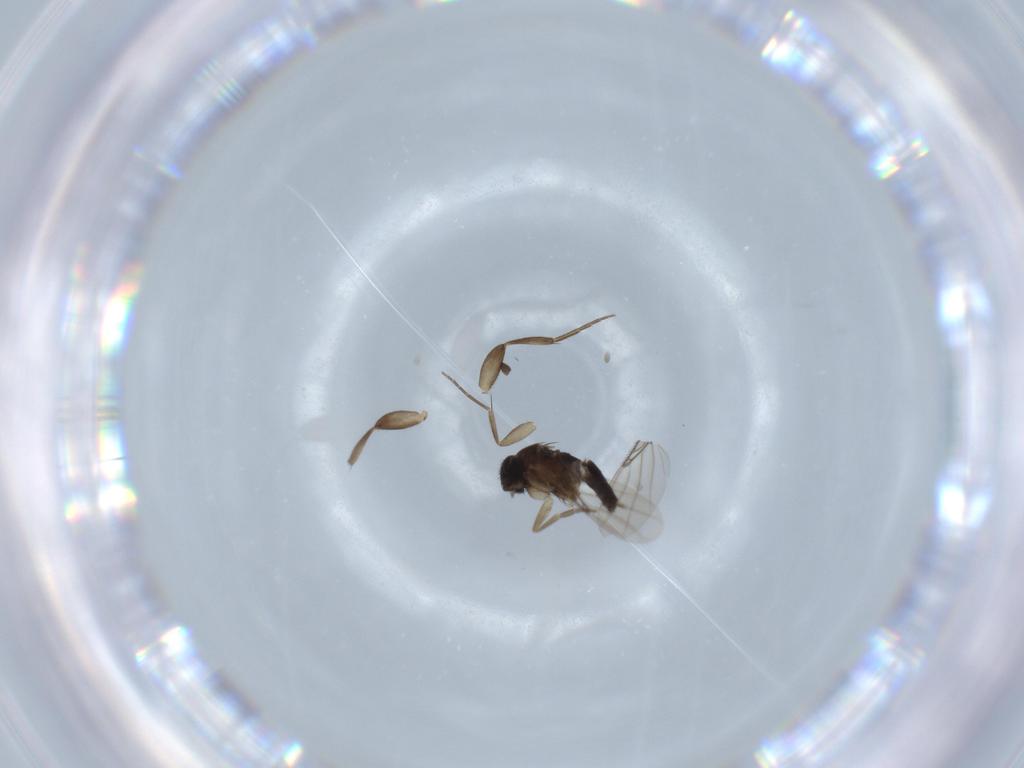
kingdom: Animalia
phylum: Arthropoda
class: Insecta
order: Diptera
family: Phoridae
